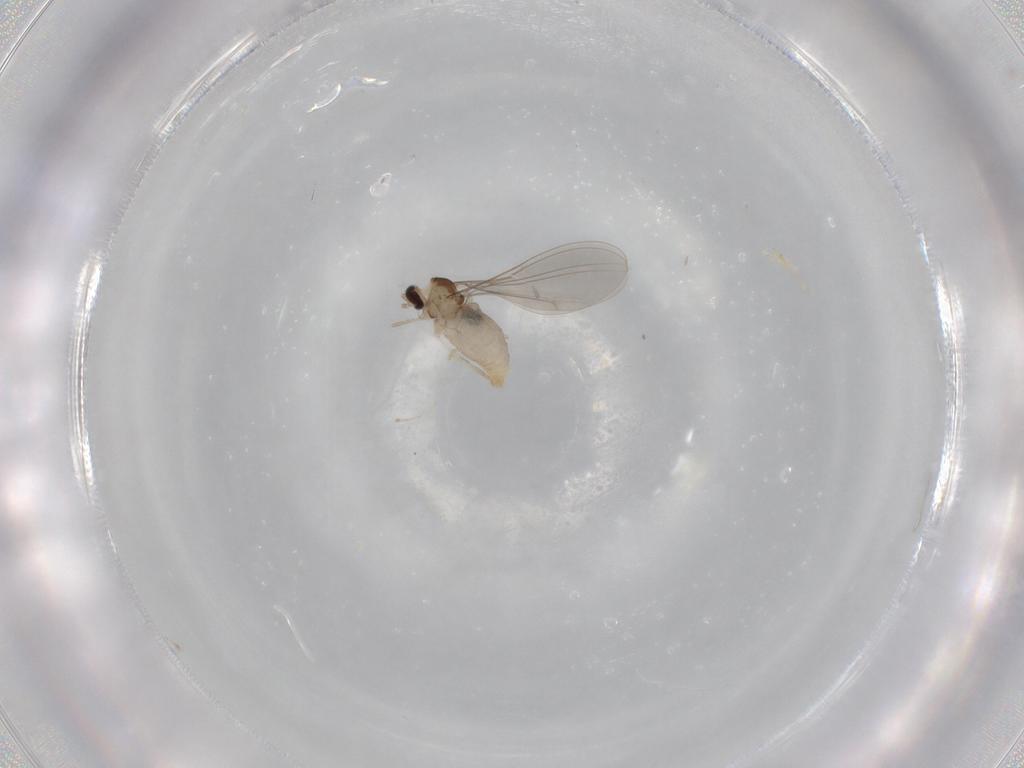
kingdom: Animalia
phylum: Arthropoda
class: Insecta
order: Diptera
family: Cecidomyiidae
